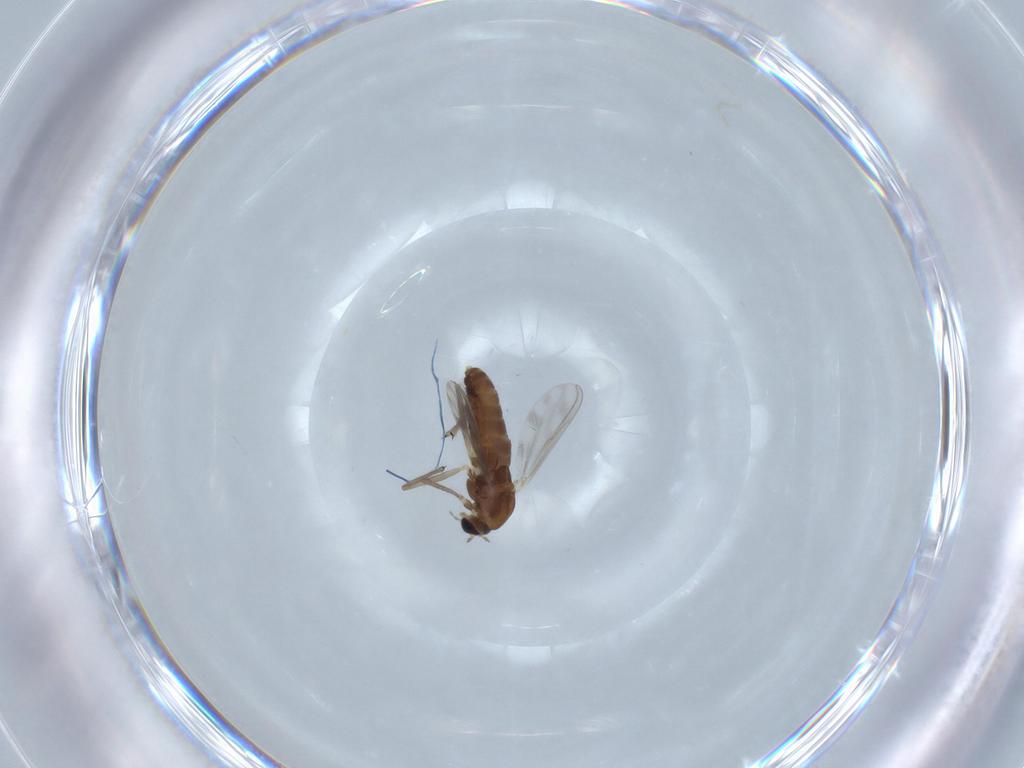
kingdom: Animalia
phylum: Arthropoda
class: Insecta
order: Diptera
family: Chironomidae
